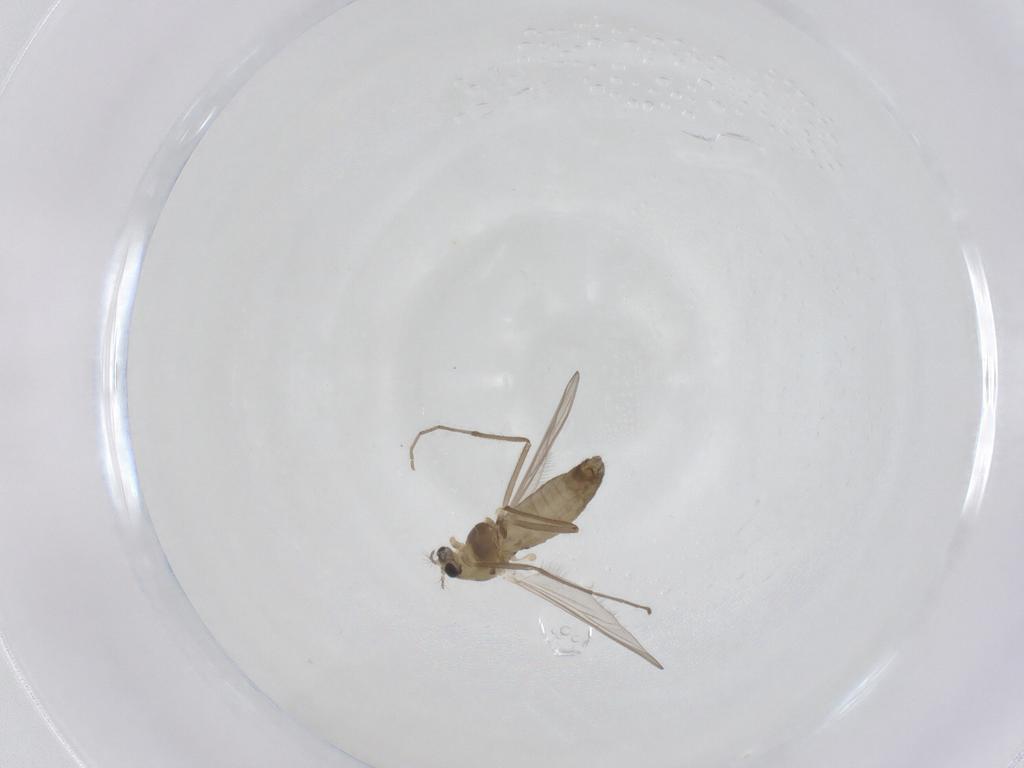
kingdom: Animalia
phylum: Arthropoda
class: Insecta
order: Diptera
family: Chironomidae
